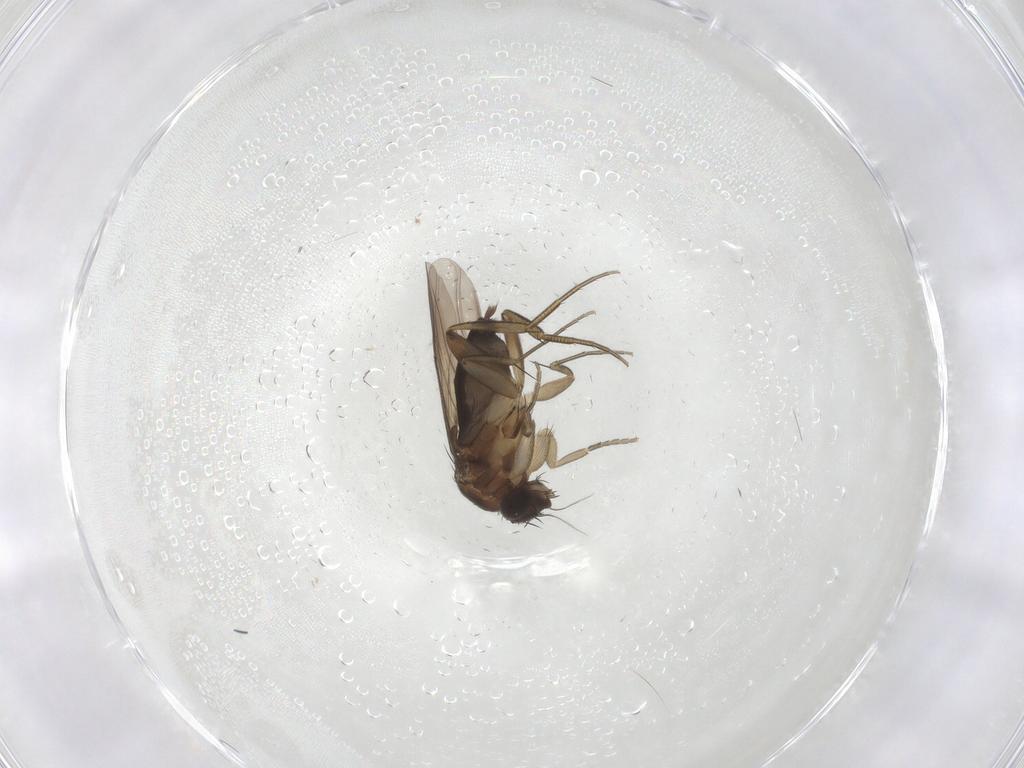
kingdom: Animalia
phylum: Arthropoda
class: Insecta
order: Diptera
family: Phoridae
